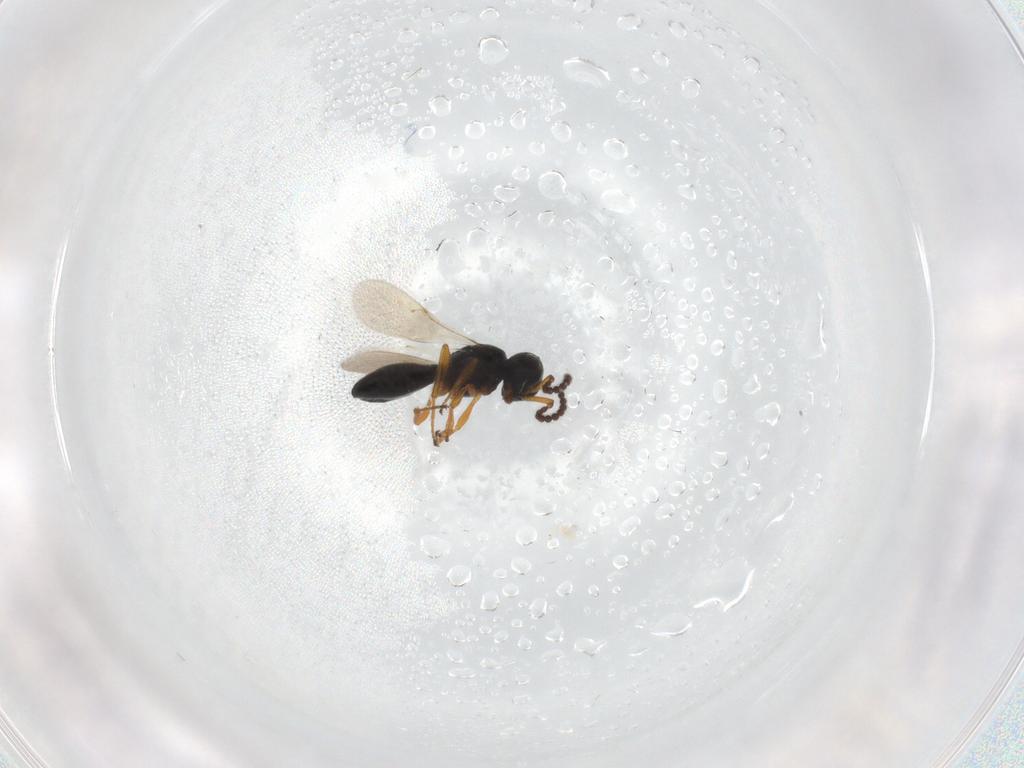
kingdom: Animalia
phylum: Arthropoda
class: Insecta
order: Hymenoptera
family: Scelionidae
